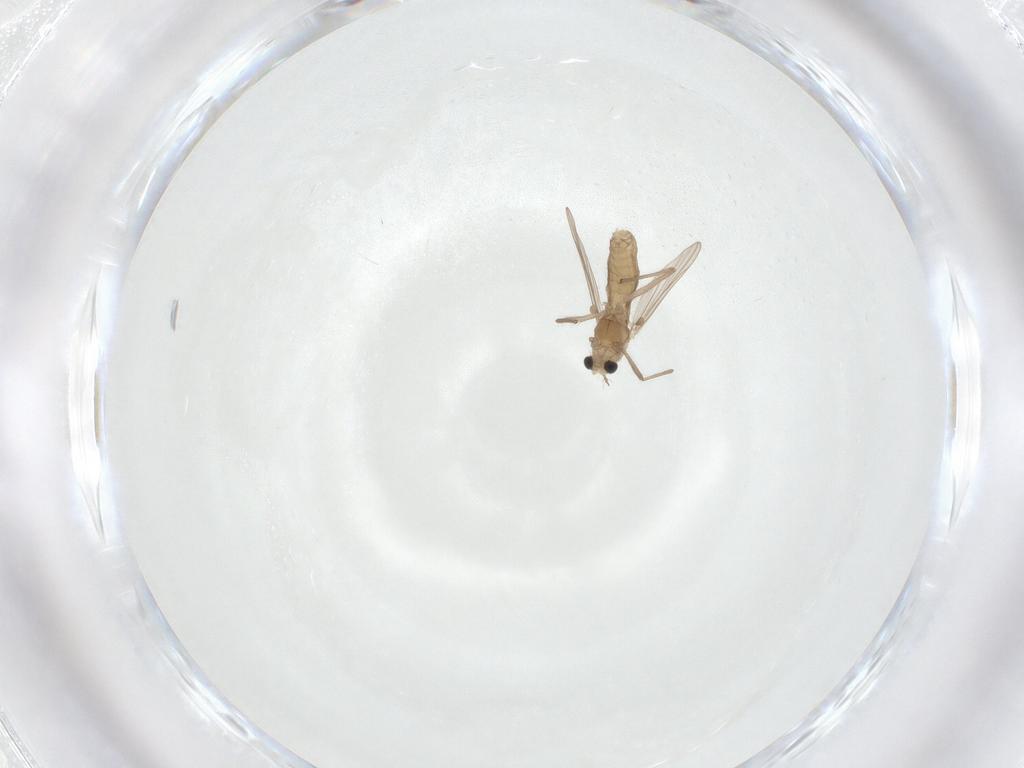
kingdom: Animalia
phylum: Arthropoda
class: Insecta
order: Diptera
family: Chironomidae
